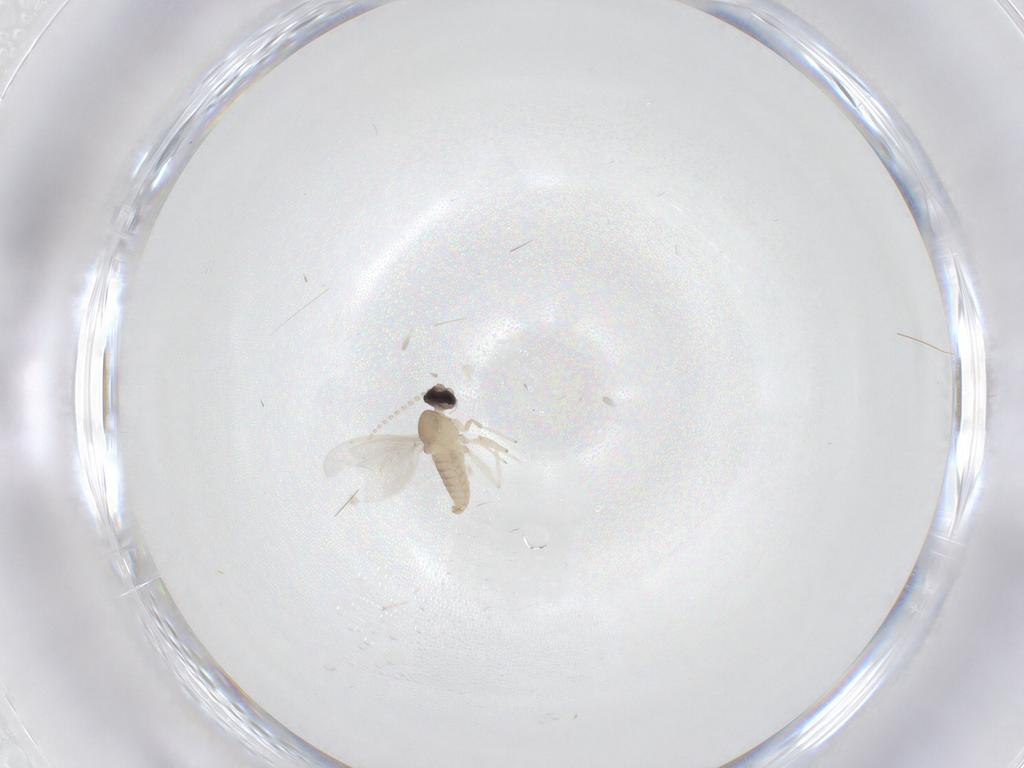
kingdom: Animalia
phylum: Arthropoda
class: Insecta
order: Diptera
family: Cecidomyiidae
